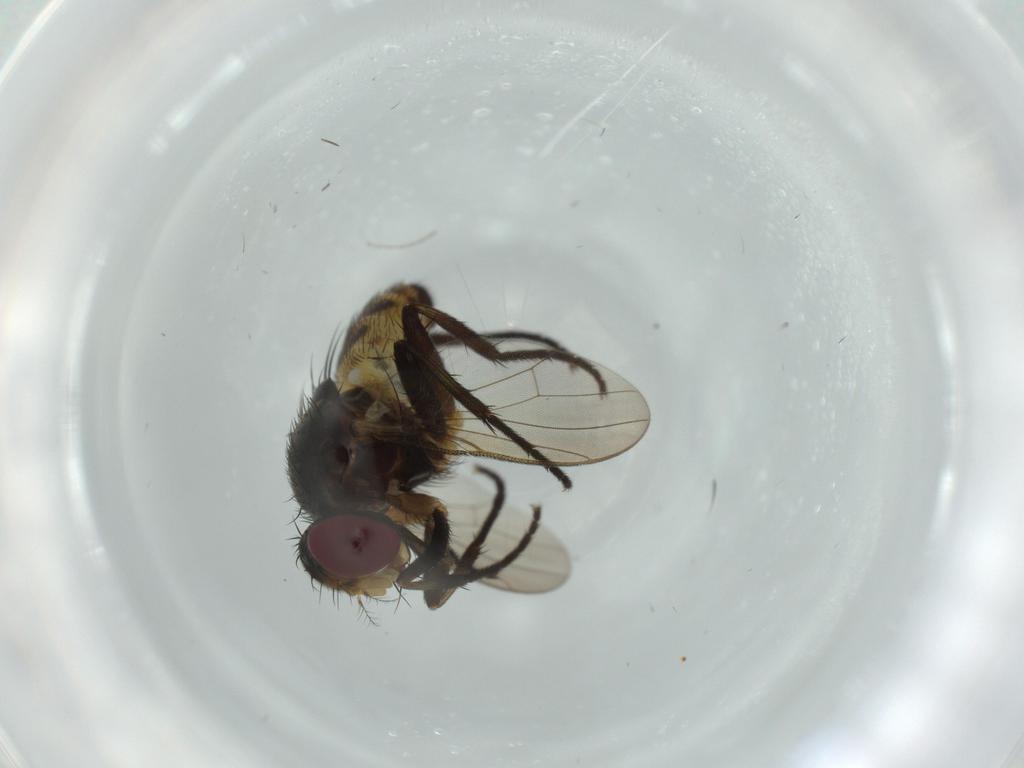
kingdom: Animalia
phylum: Arthropoda
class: Insecta
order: Diptera
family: Anthomyiidae
